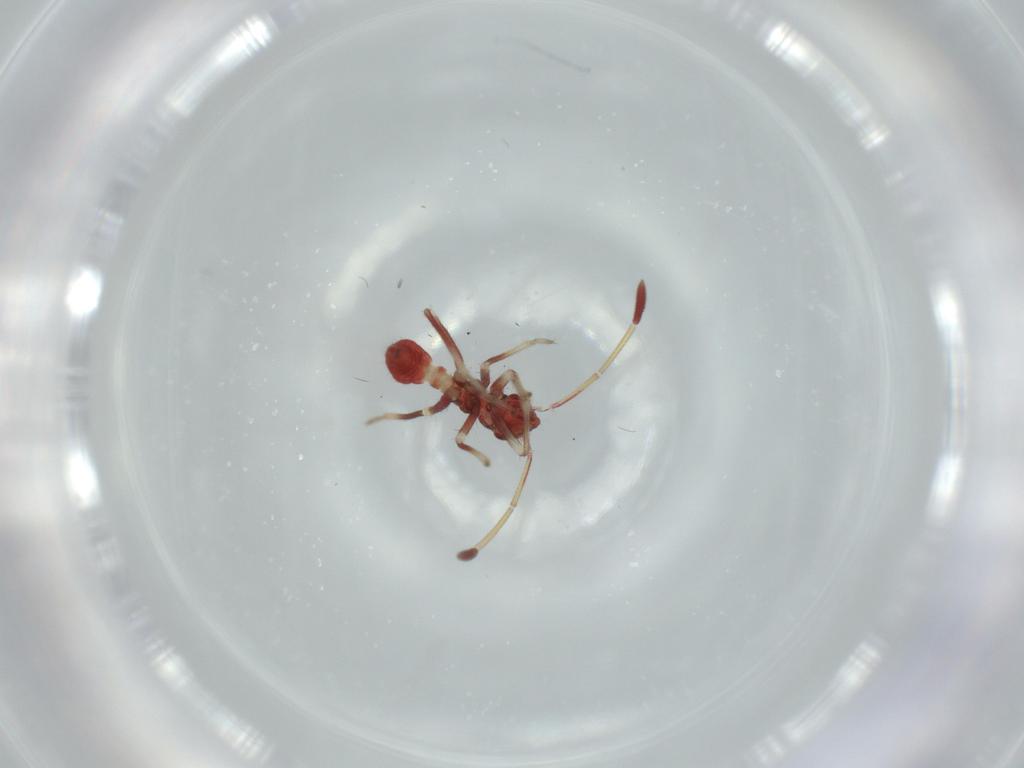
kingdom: Animalia
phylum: Arthropoda
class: Insecta
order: Hemiptera
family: Miridae
